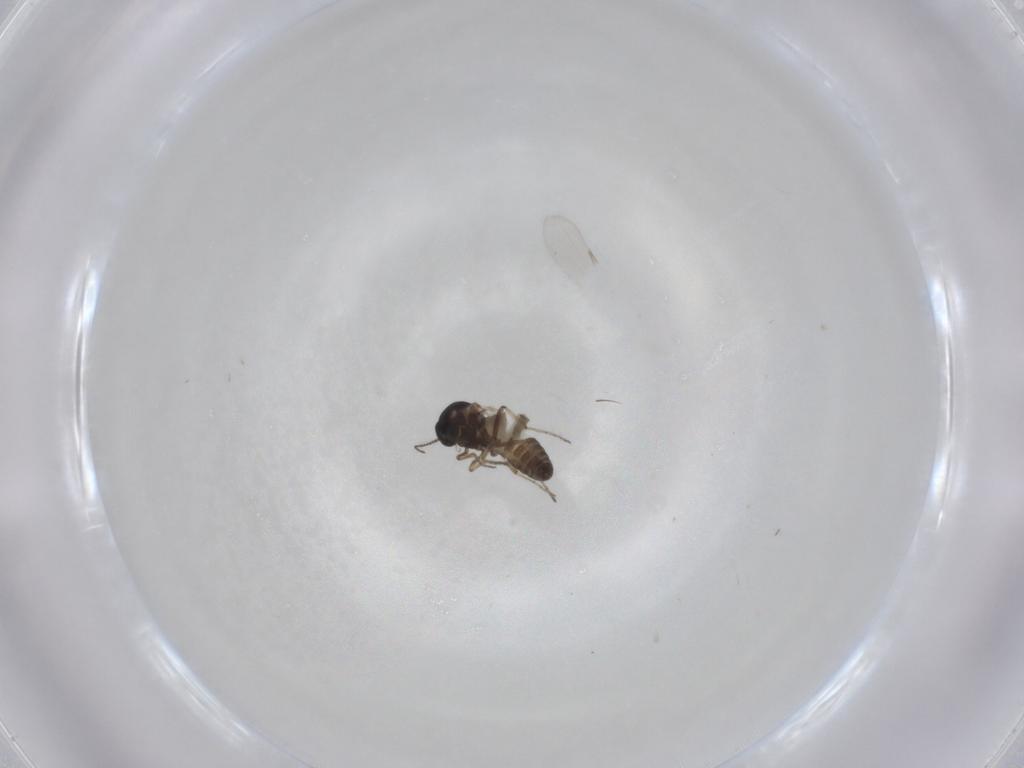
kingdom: Animalia
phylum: Arthropoda
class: Insecta
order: Diptera
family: Ceratopogonidae
